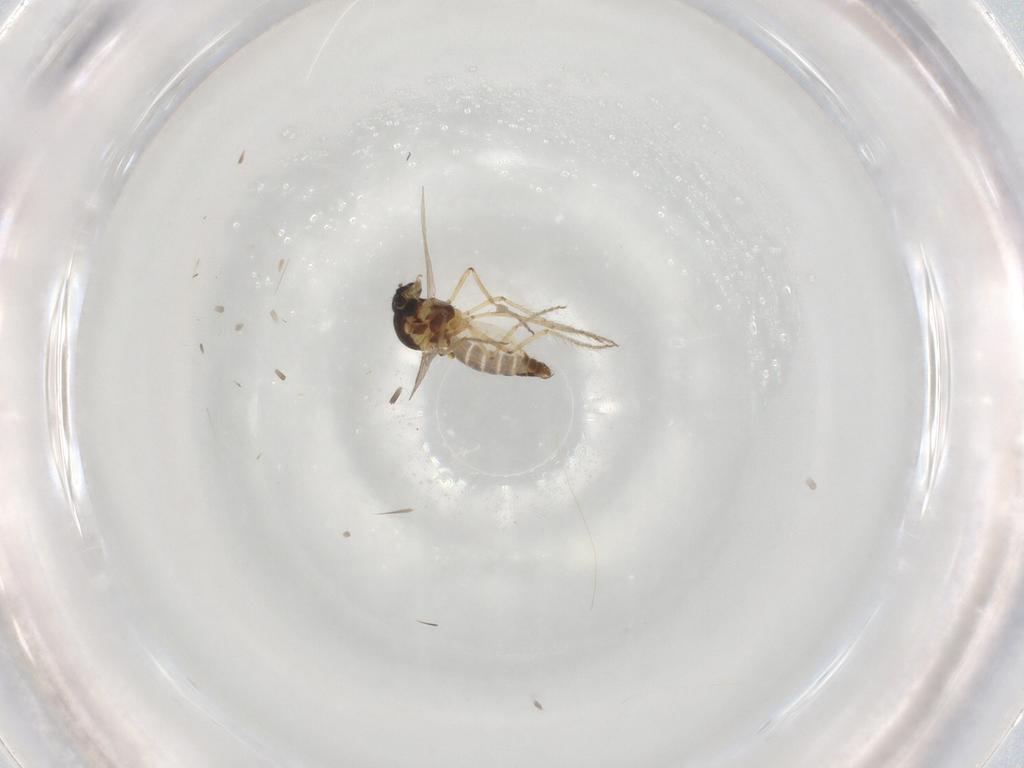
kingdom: Animalia
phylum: Arthropoda
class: Insecta
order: Diptera
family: Ceratopogonidae
